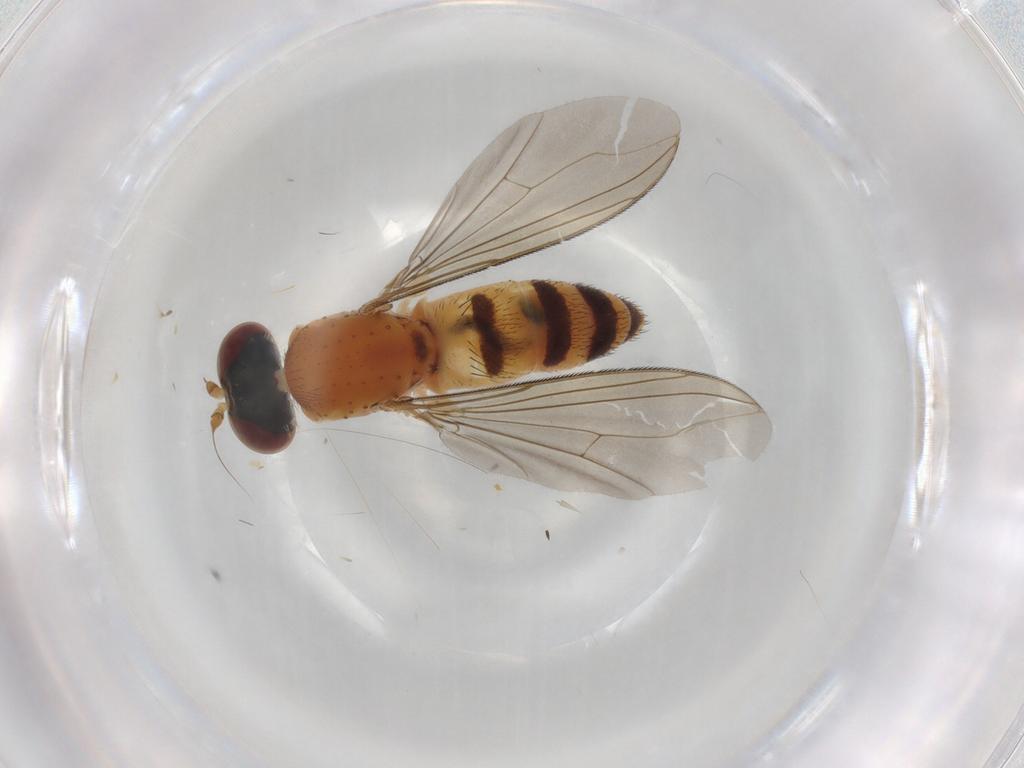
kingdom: Animalia
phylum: Arthropoda
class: Insecta
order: Diptera
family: Dolichopodidae
